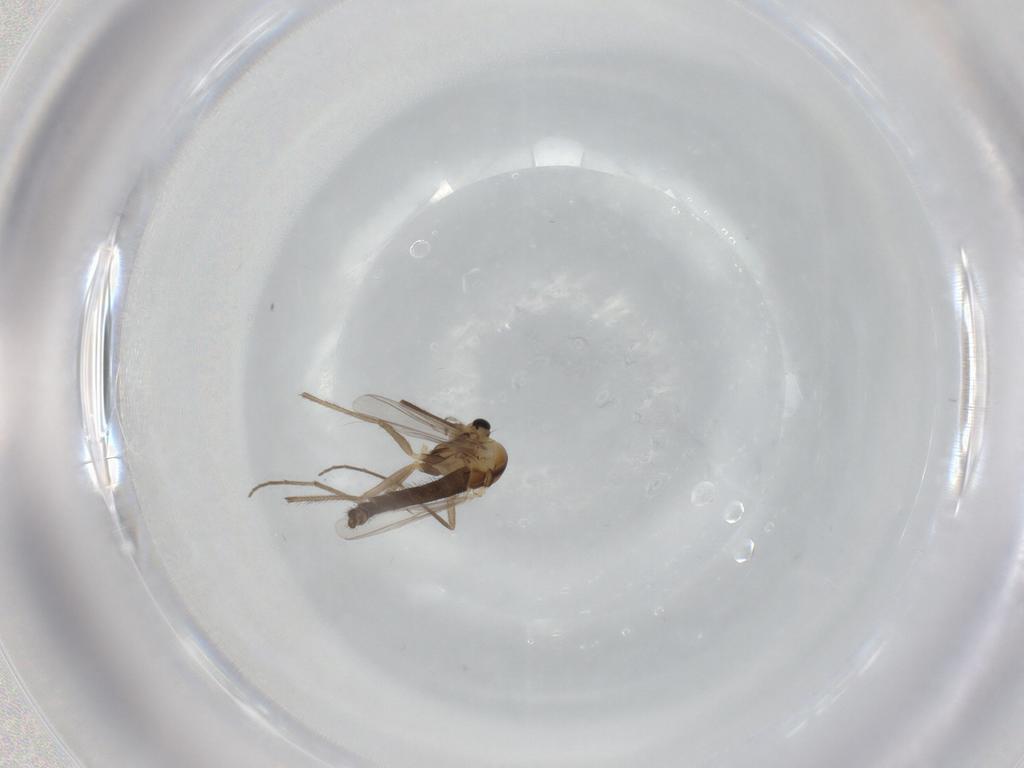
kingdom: Animalia
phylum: Arthropoda
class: Insecta
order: Diptera
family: Chironomidae
